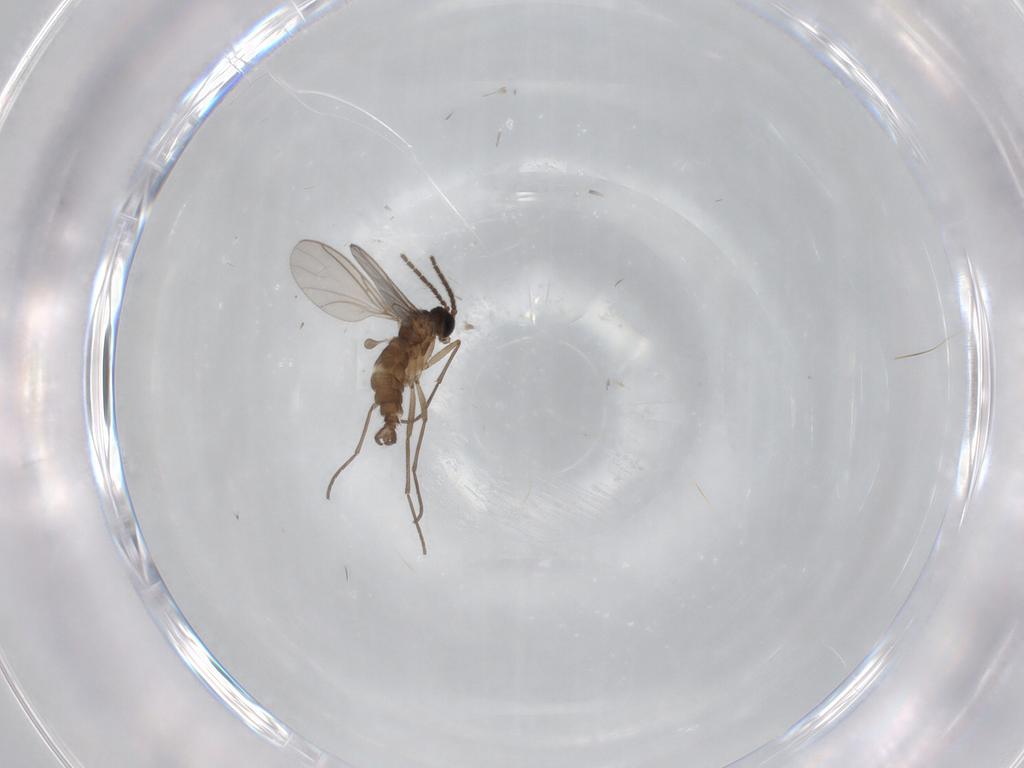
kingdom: Animalia
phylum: Arthropoda
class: Insecta
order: Diptera
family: Sciaridae
